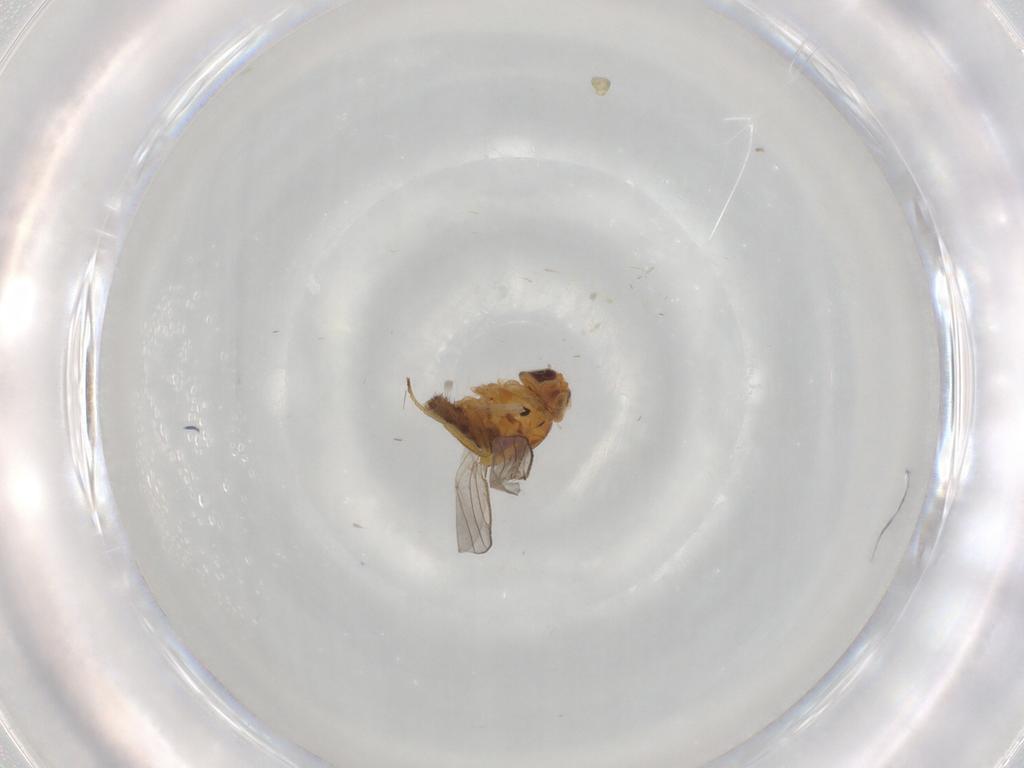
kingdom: Animalia
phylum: Arthropoda
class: Insecta
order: Diptera
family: Chloropidae
